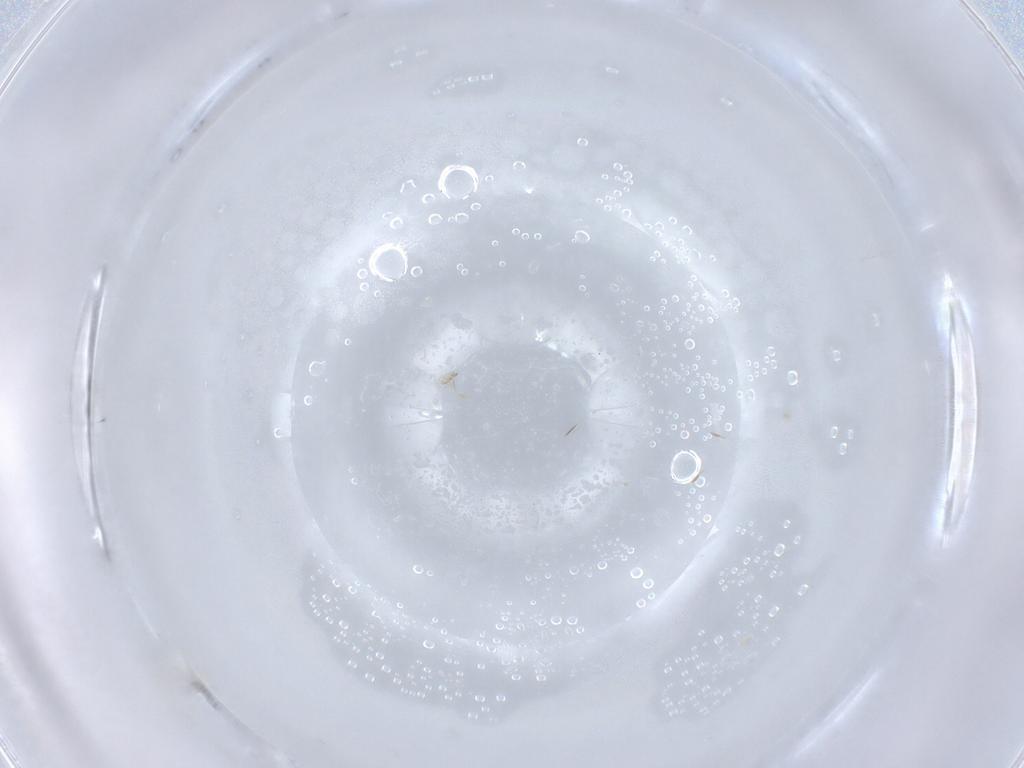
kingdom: Animalia
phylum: Arthropoda
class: Insecta
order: Hymenoptera
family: Mymaridae
